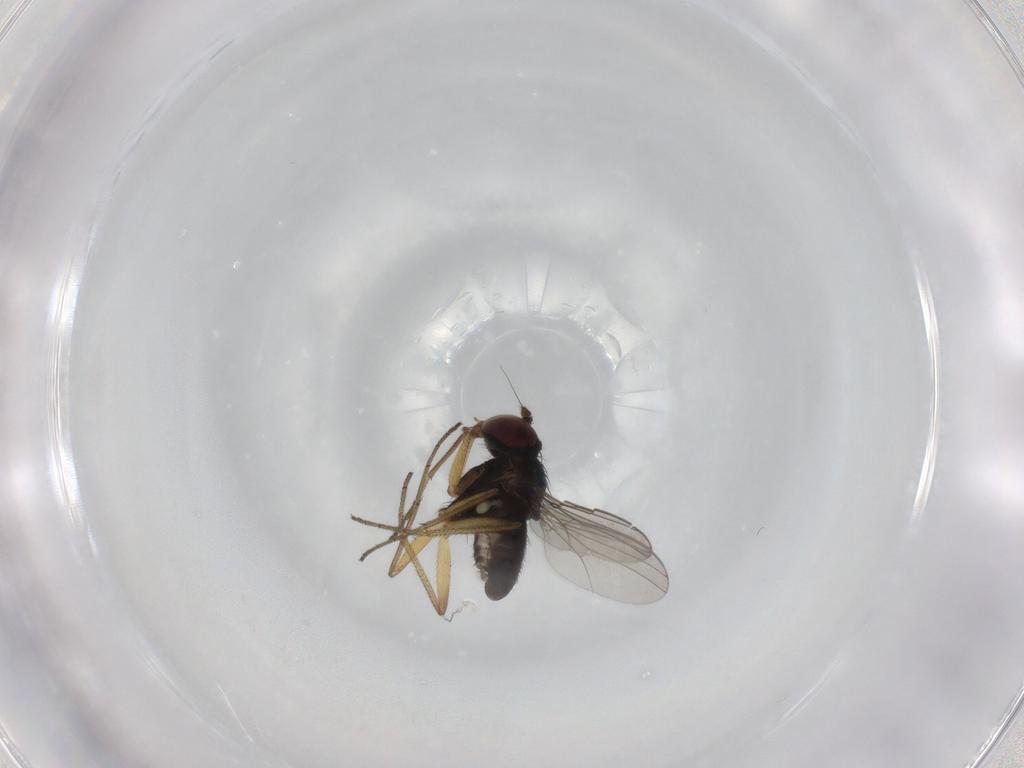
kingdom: Animalia
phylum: Arthropoda
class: Insecta
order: Diptera
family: Dolichopodidae
